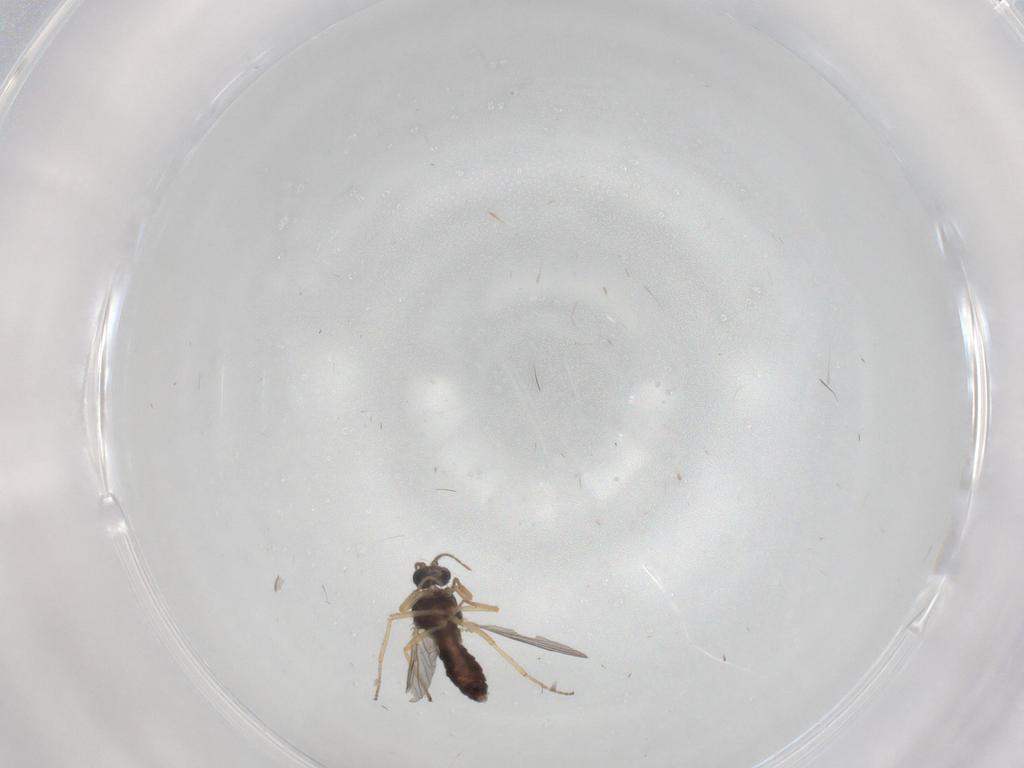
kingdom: Animalia
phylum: Arthropoda
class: Insecta
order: Diptera
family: Ceratopogonidae
